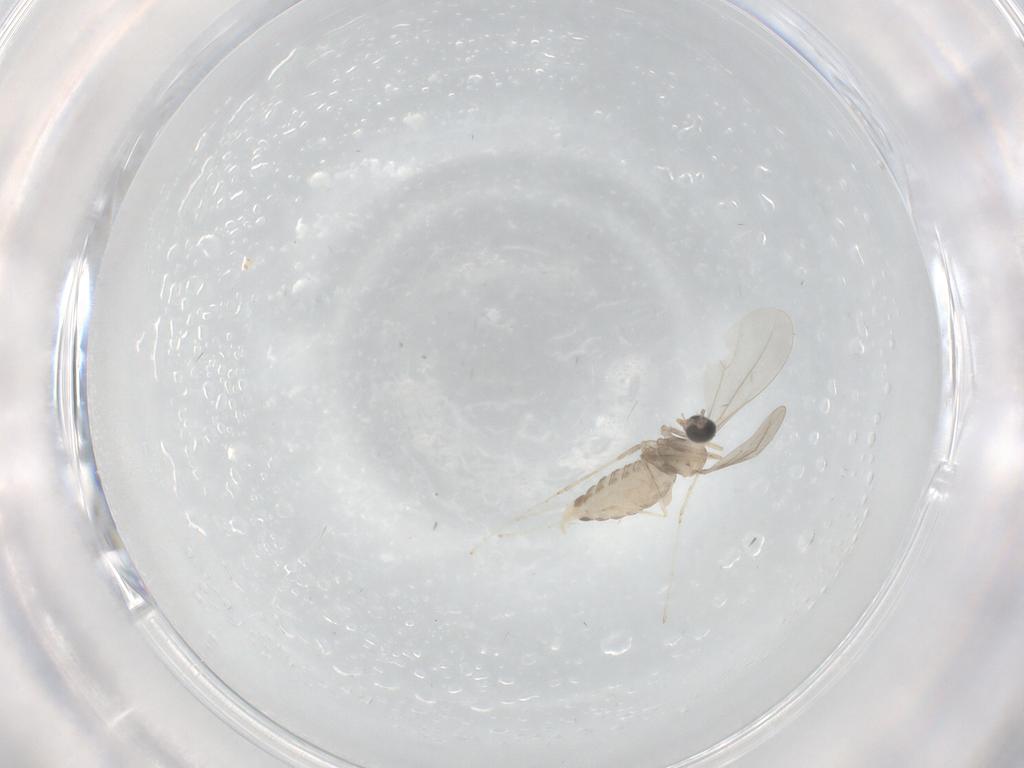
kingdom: Animalia
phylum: Arthropoda
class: Insecta
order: Diptera
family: Cecidomyiidae
